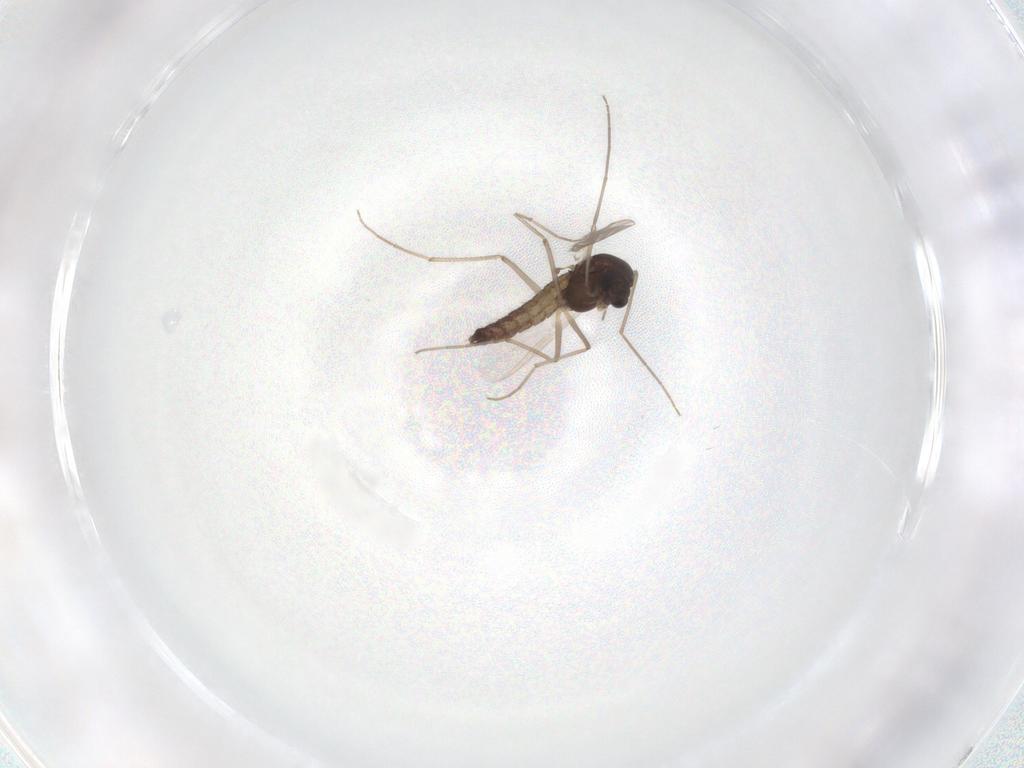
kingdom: Animalia
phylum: Arthropoda
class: Insecta
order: Diptera
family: Chironomidae
